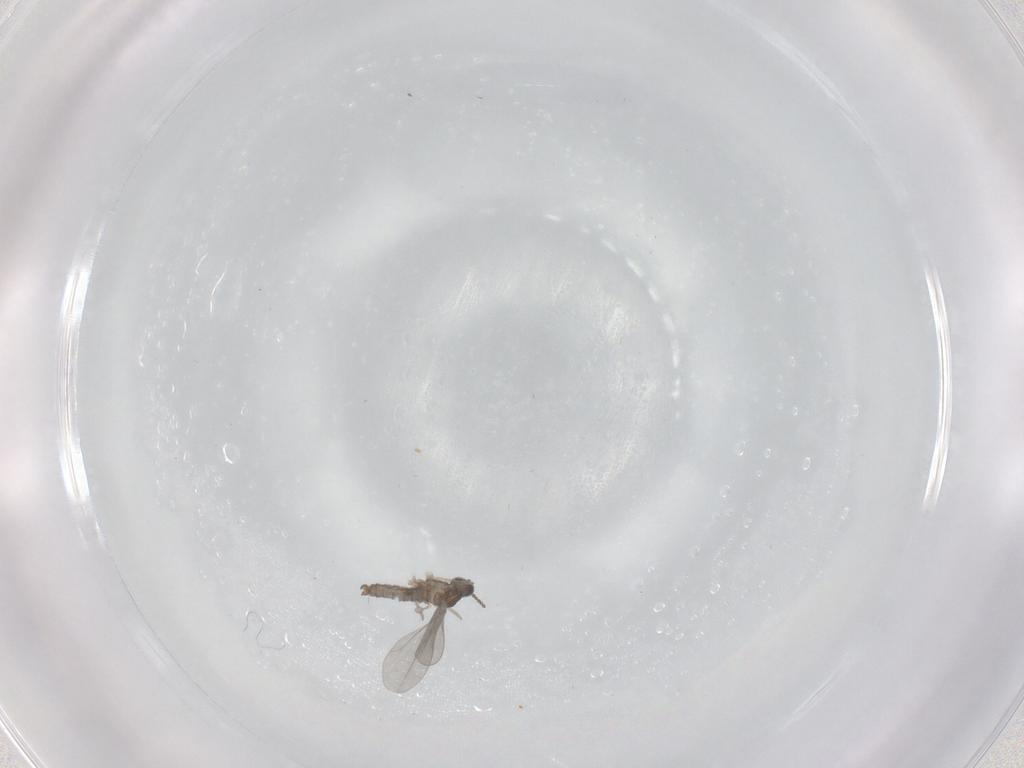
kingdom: Animalia
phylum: Arthropoda
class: Insecta
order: Diptera
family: Cecidomyiidae
